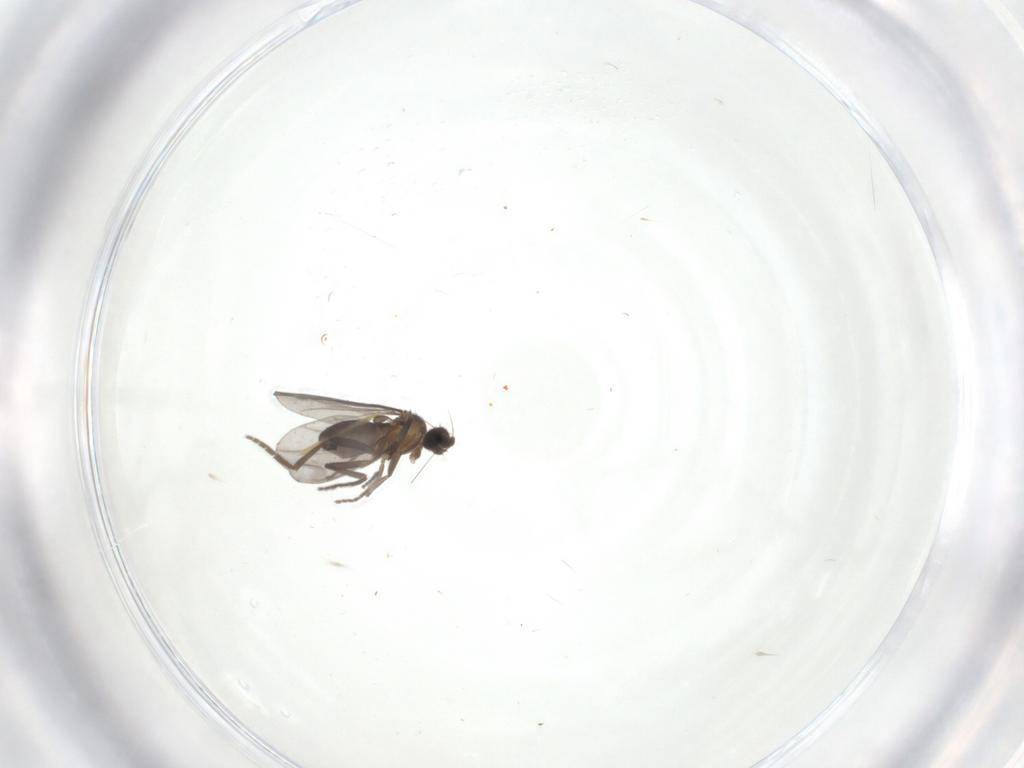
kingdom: Animalia
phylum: Arthropoda
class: Insecta
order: Diptera
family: Phoridae
